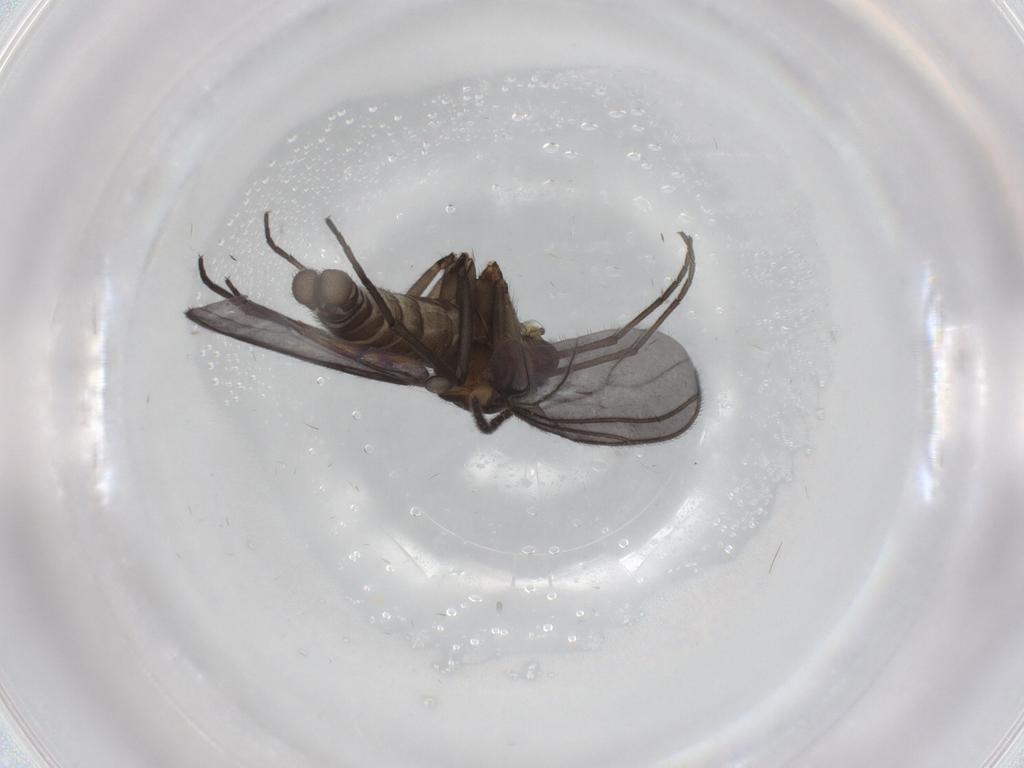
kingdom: Animalia
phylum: Arthropoda
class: Insecta
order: Diptera
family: Sciaridae
